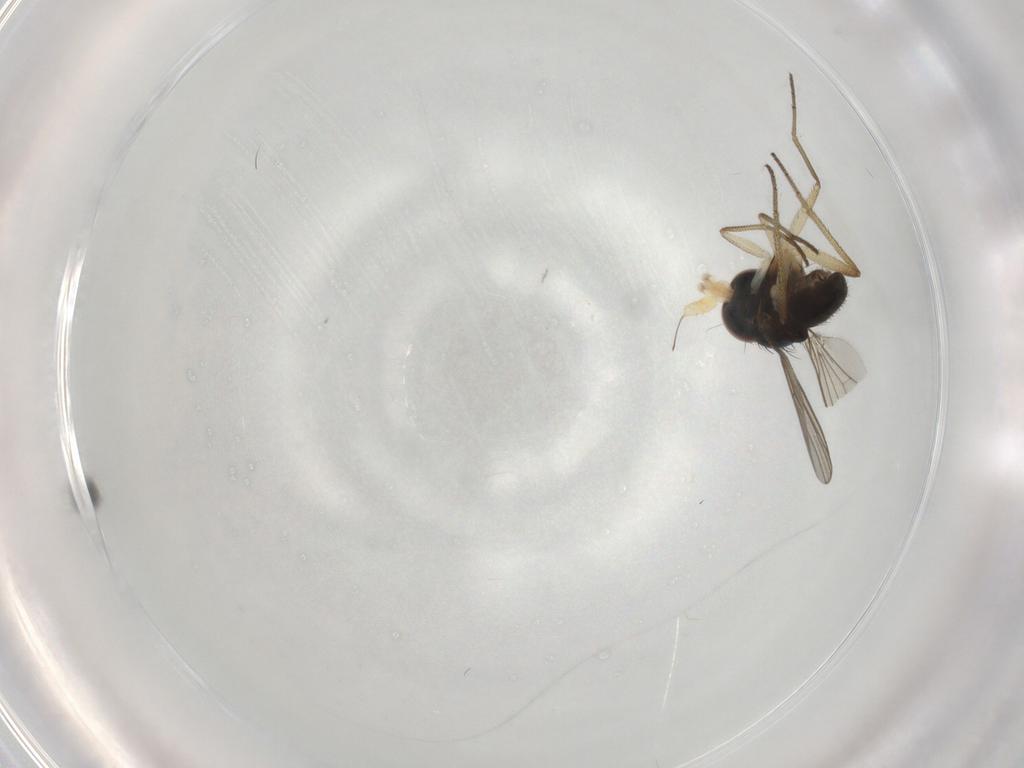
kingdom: Animalia
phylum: Arthropoda
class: Insecta
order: Diptera
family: Dolichopodidae
